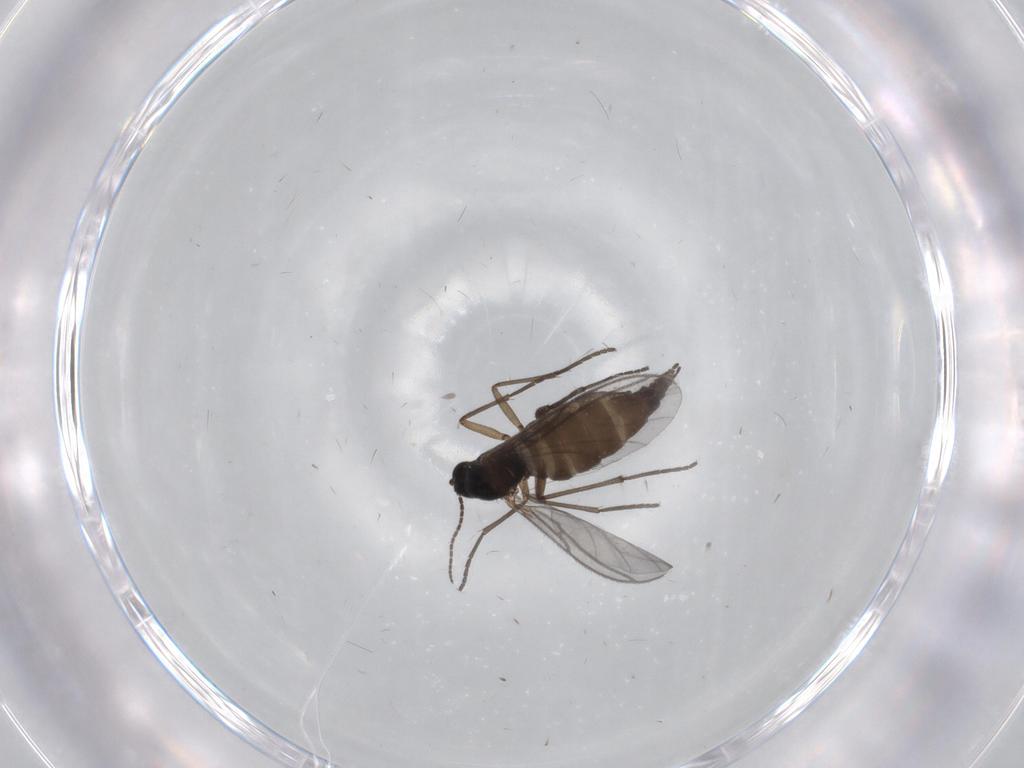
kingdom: Animalia
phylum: Arthropoda
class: Insecta
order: Diptera
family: Sciaridae
